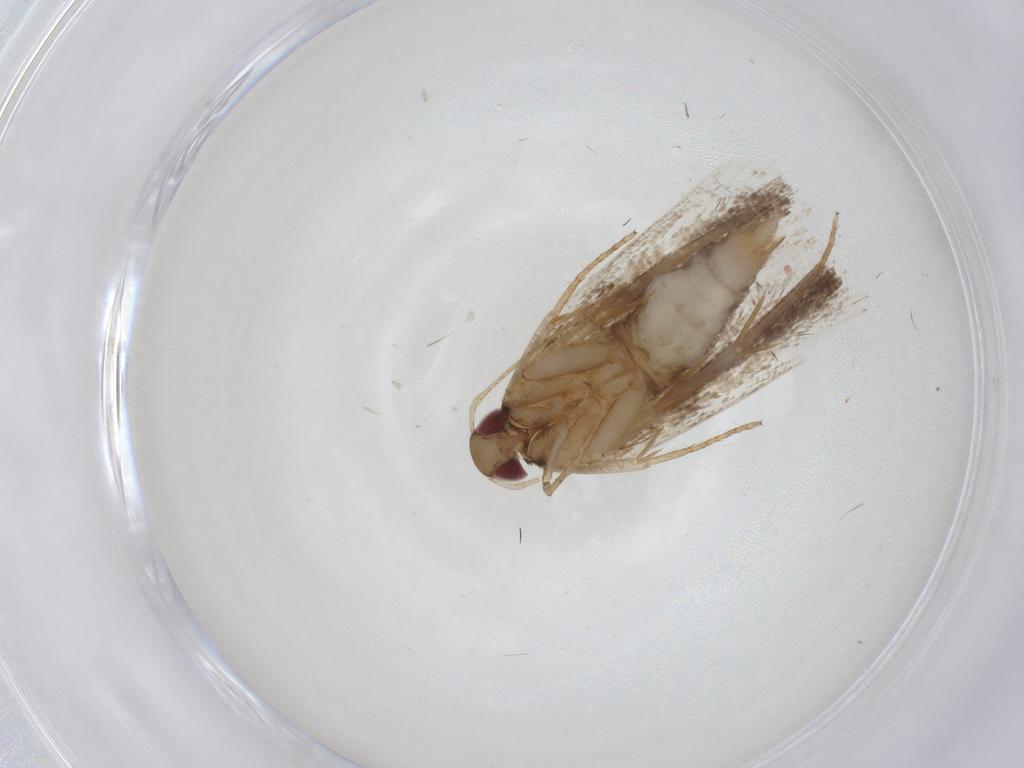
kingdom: Animalia
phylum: Arthropoda
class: Insecta
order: Lepidoptera
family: Gelechiidae
